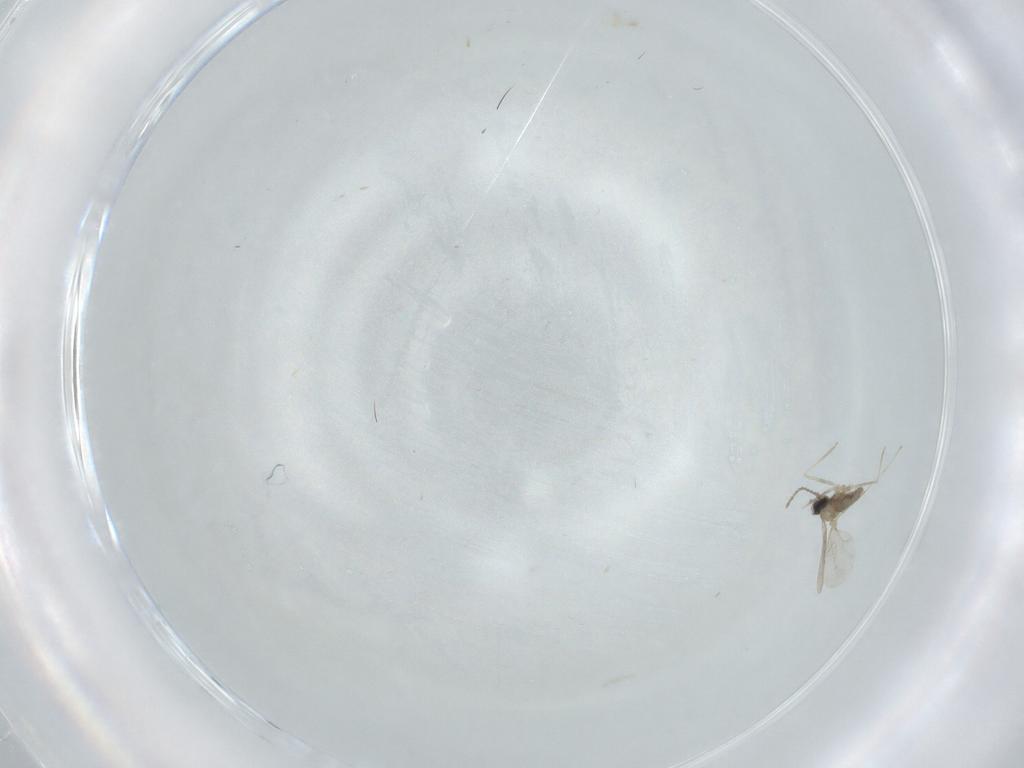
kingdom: Animalia
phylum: Arthropoda
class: Insecta
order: Diptera
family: Cecidomyiidae
